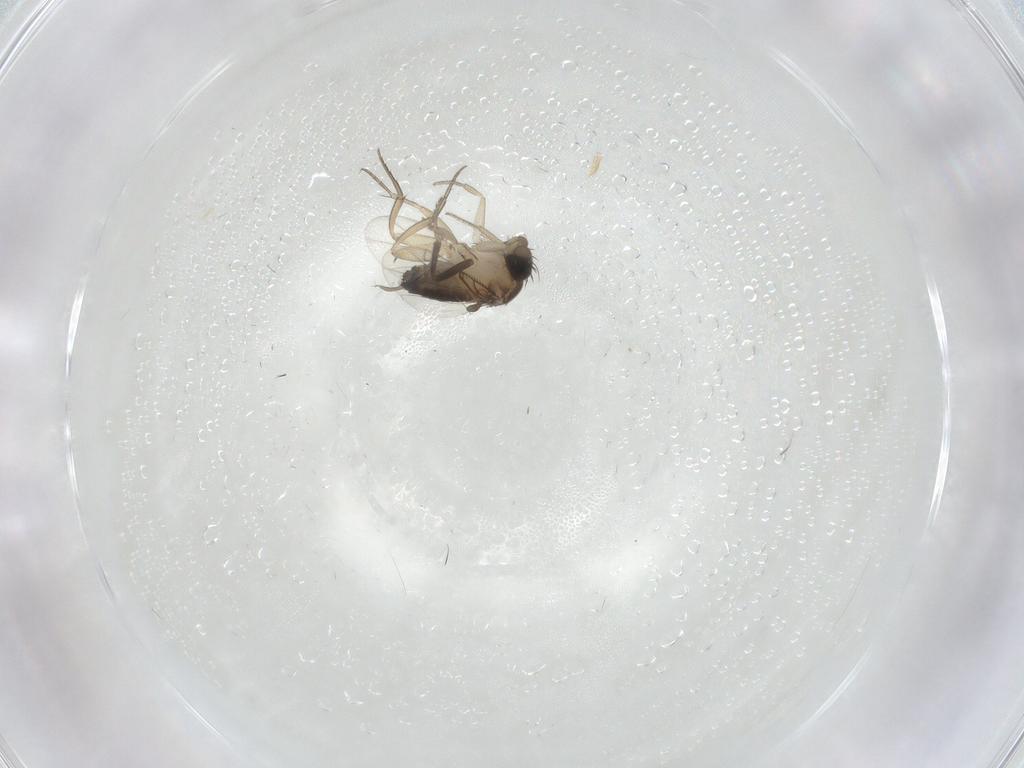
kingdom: Animalia
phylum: Arthropoda
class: Insecta
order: Diptera
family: Milichiidae
